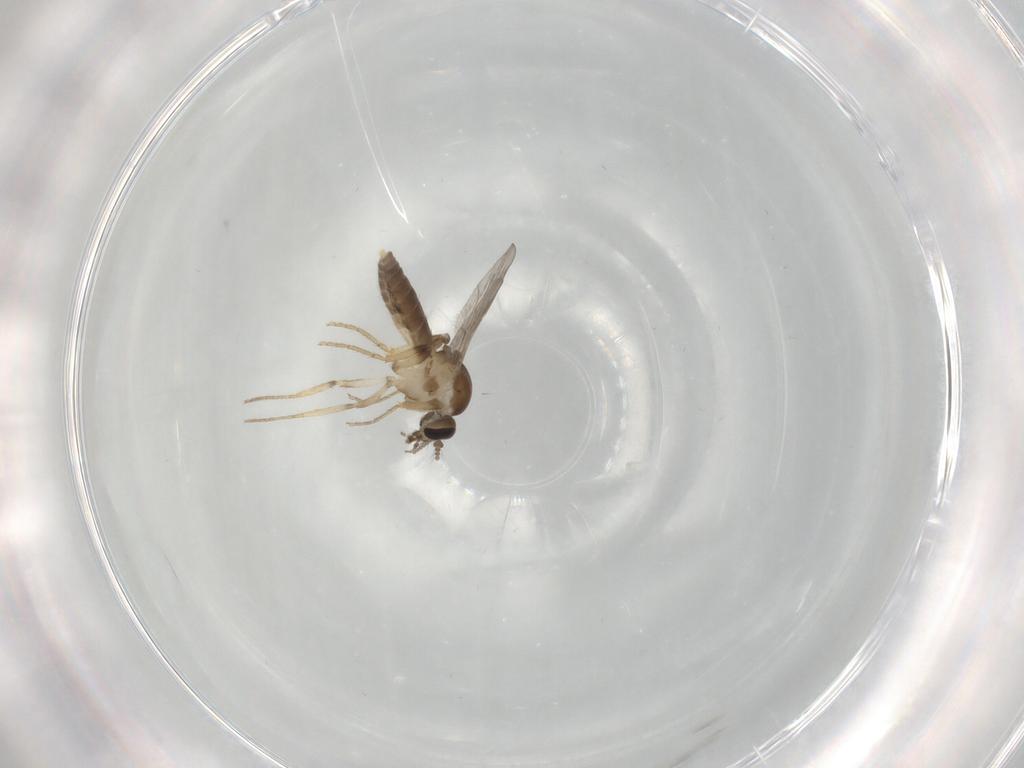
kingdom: Animalia
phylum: Arthropoda
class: Insecta
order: Diptera
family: Ceratopogonidae
